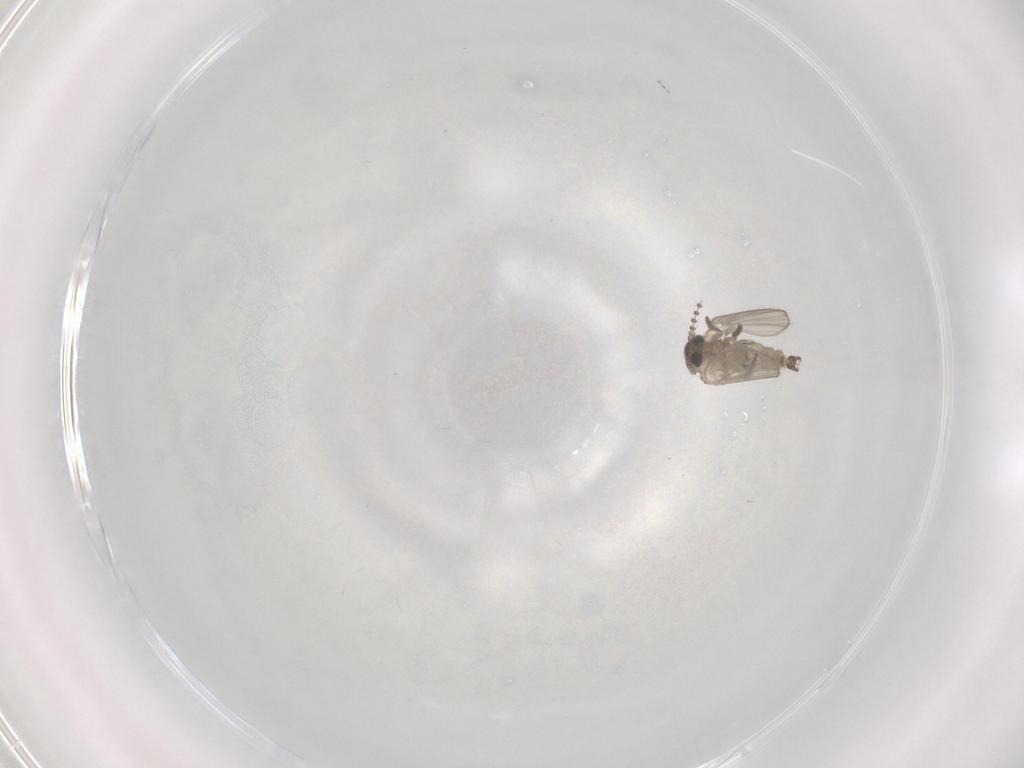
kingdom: Animalia
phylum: Arthropoda
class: Insecta
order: Diptera
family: Psychodidae
